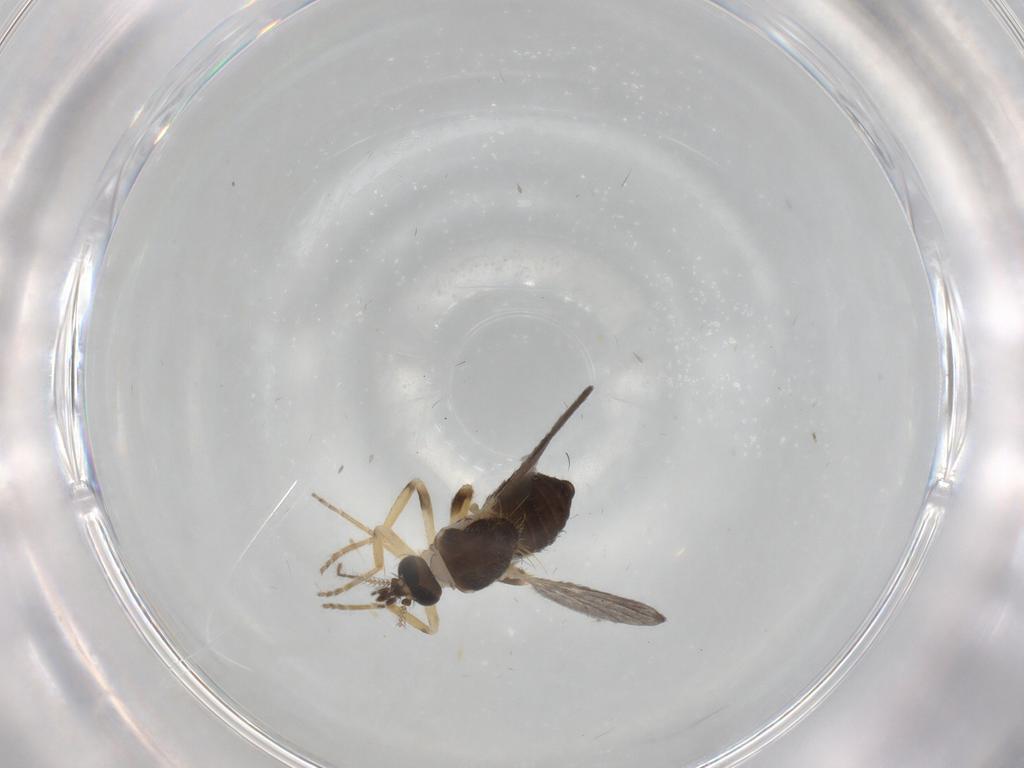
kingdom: Animalia
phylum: Arthropoda
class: Insecta
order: Diptera
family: Ceratopogonidae
